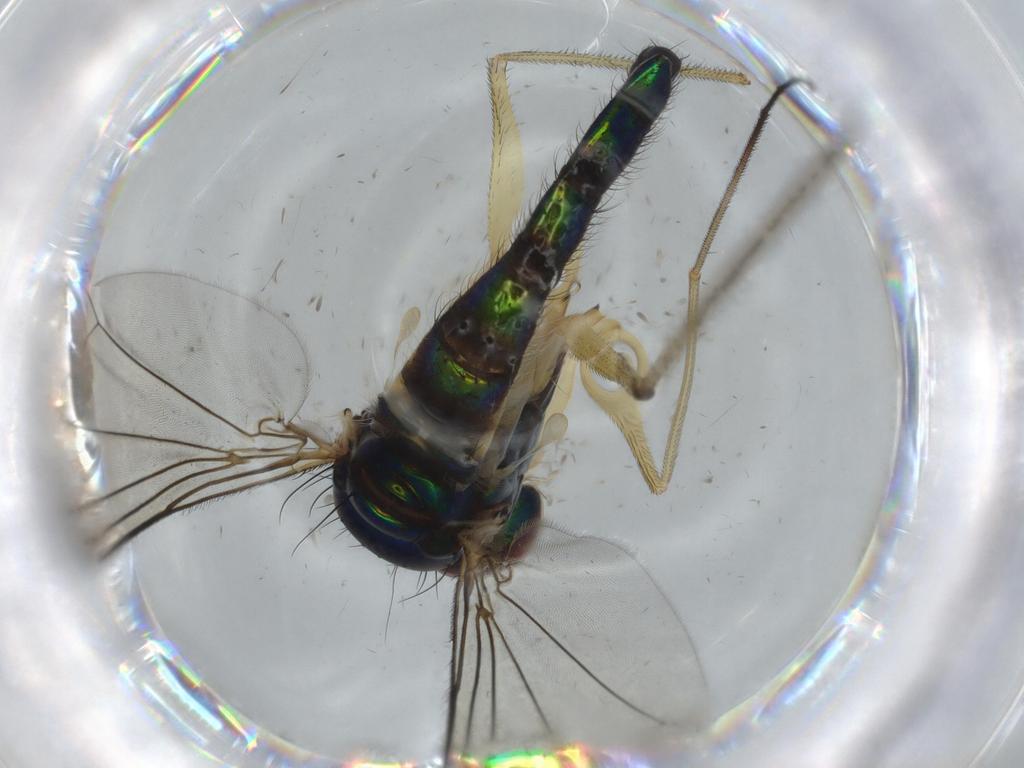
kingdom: Animalia
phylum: Arthropoda
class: Insecta
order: Diptera
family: Dolichopodidae
